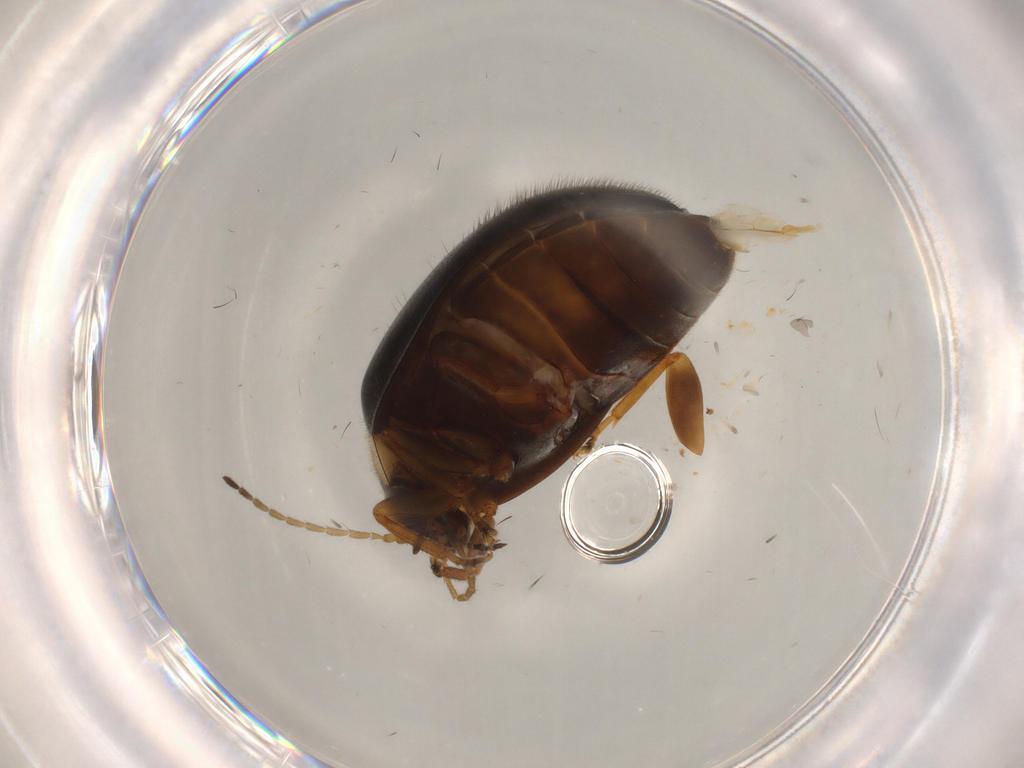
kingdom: Animalia
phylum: Arthropoda
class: Insecta
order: Coleoptera
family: Scirtidae
